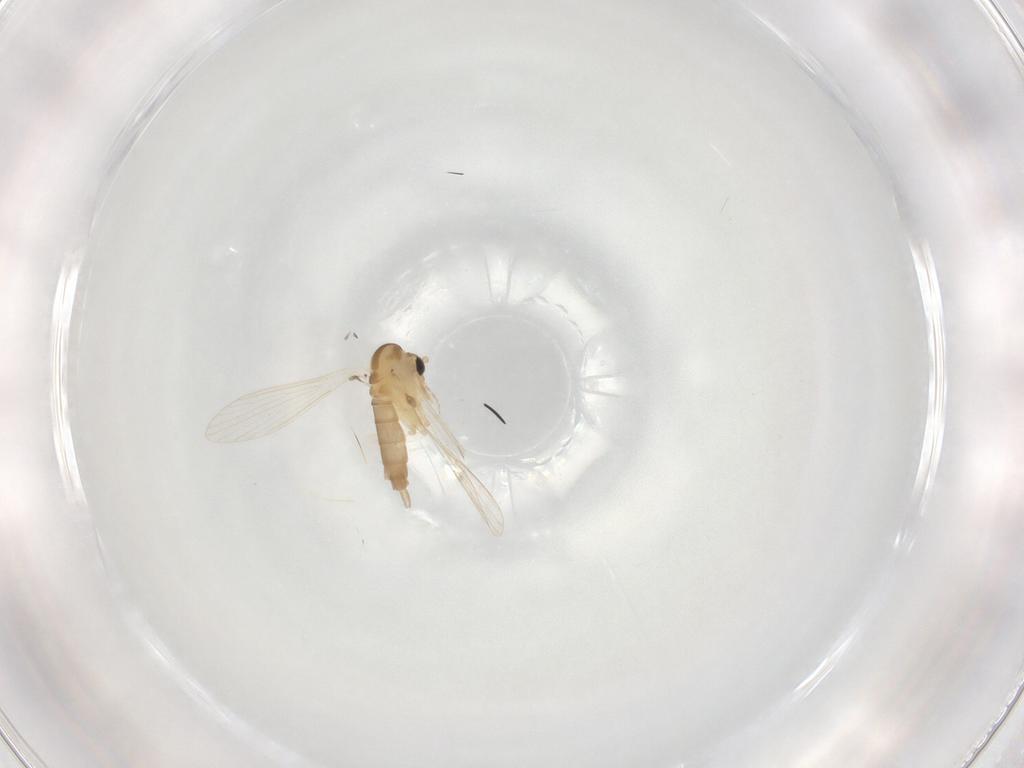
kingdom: Animalia
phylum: Arthropoda
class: Insecta
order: Diptera
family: Psychodidae
